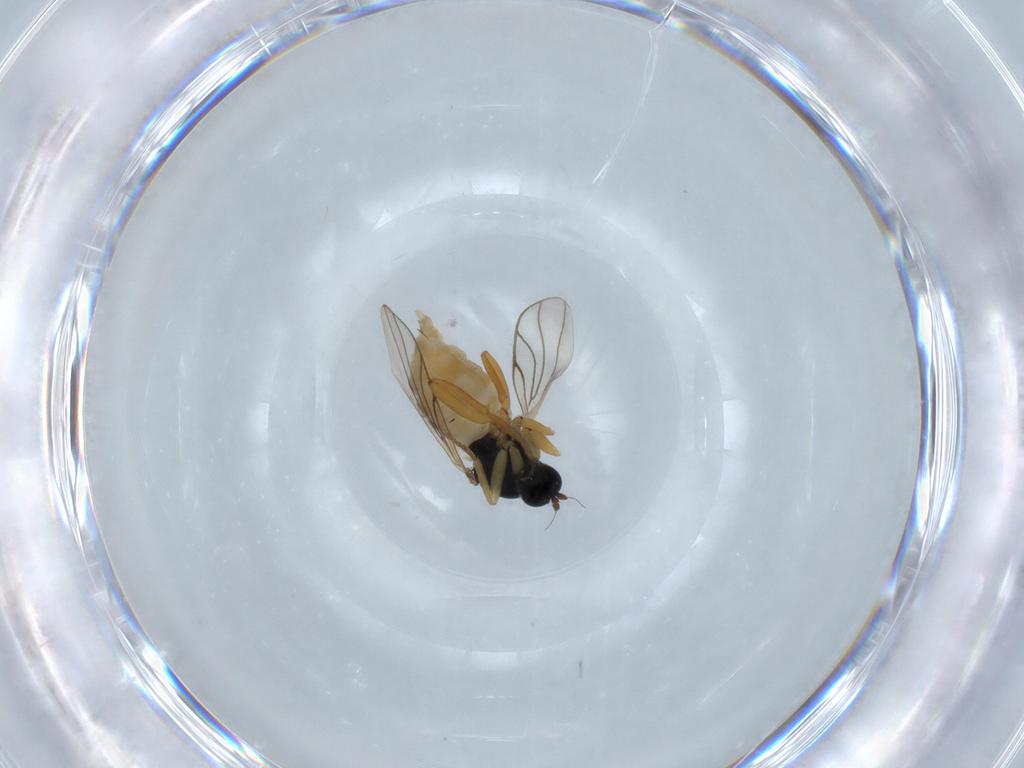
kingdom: Animalia
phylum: Arthropoda
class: Insecta
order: Diptera
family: Hybotidae
